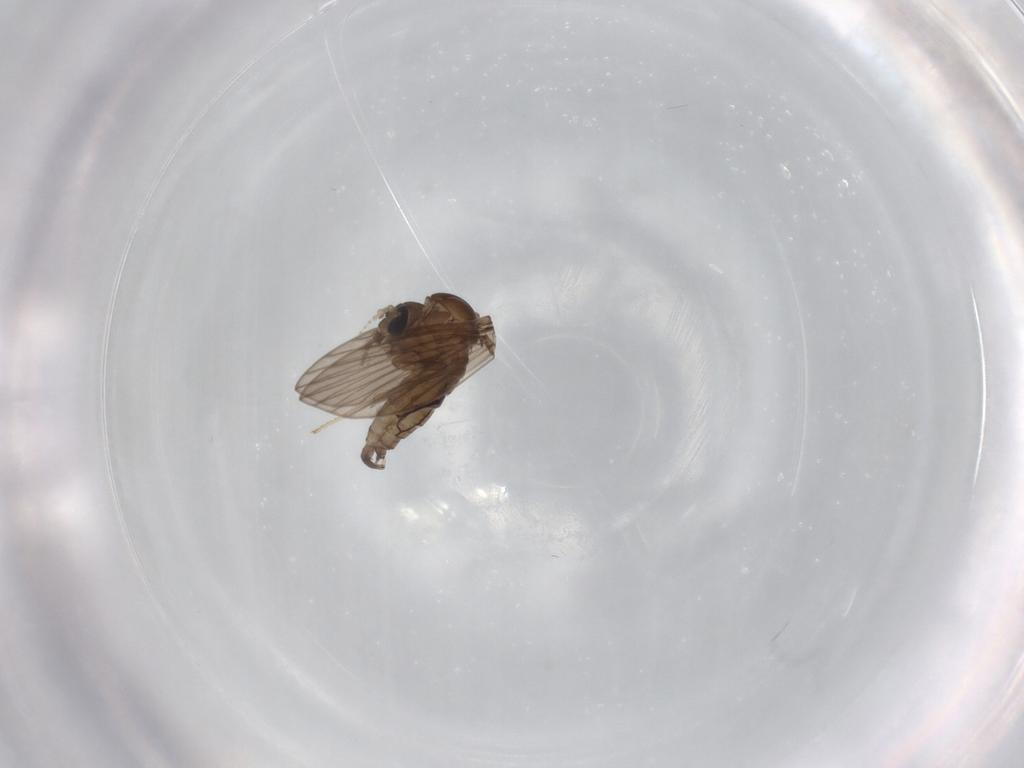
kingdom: Animalia
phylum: Arthropoda
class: Insecta
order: Diptera
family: Psychodidae
